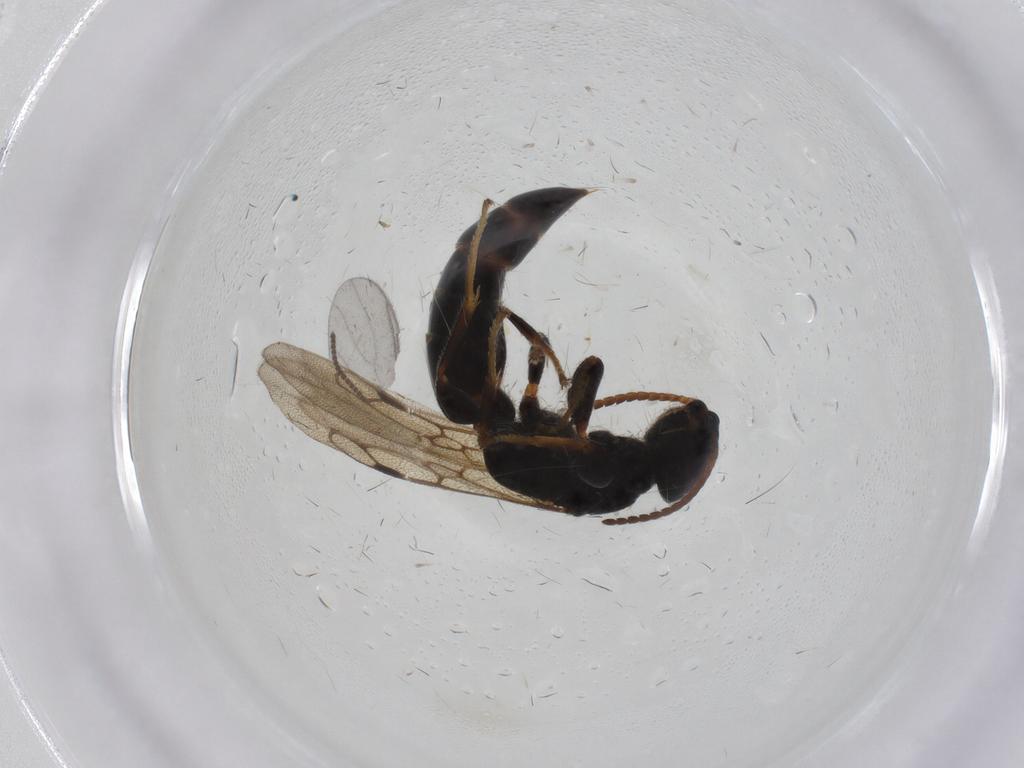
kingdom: Animalia
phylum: Arthropoda
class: Insecta
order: Hymenoptera
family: Bethylidae
